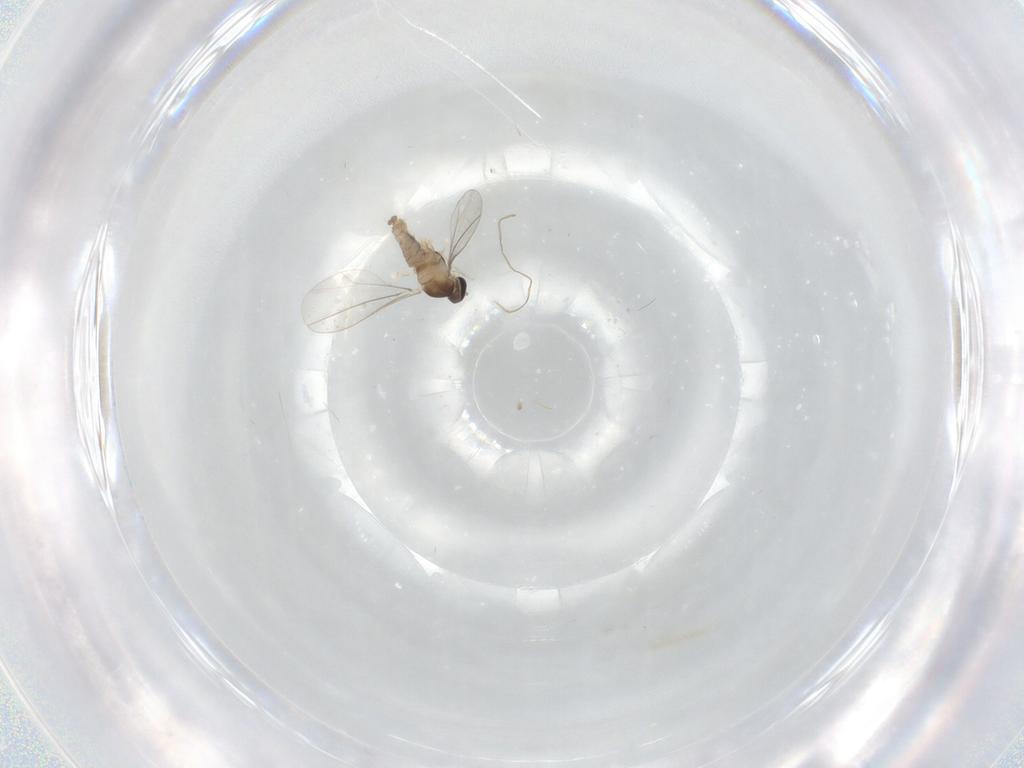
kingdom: Animalia
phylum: Arthropoda
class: Insecta
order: Diptera
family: Cecidomyiidae
